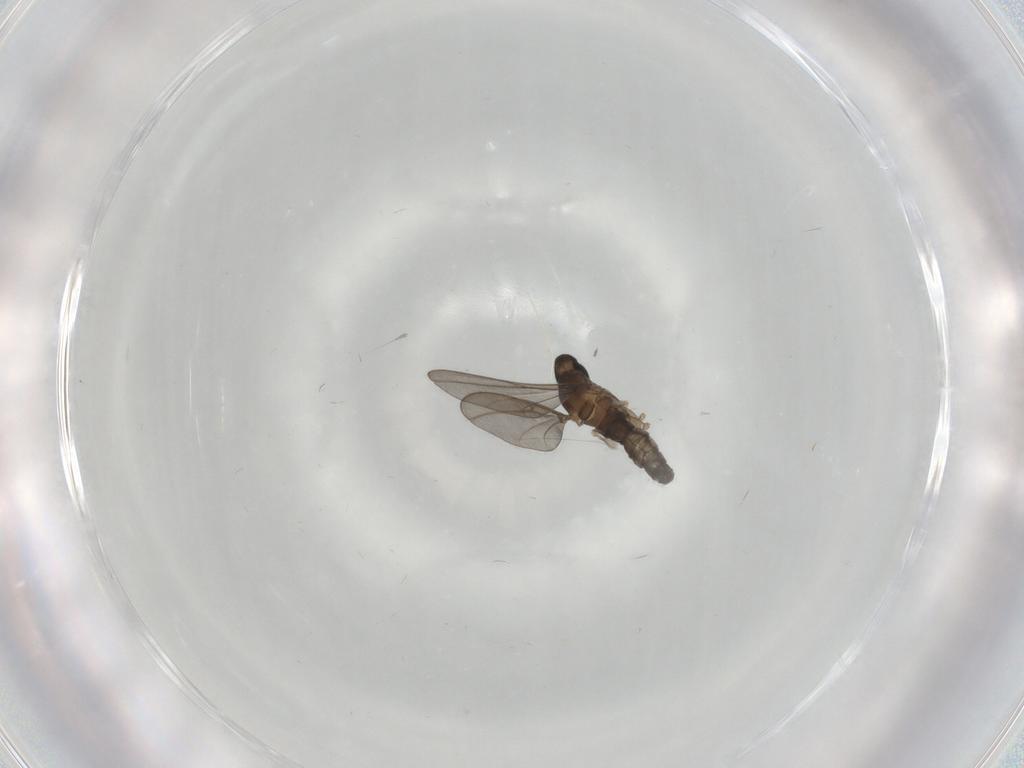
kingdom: Animalia
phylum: Arthropoda
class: Insecta
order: Diptera
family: Cecidomyiidae
